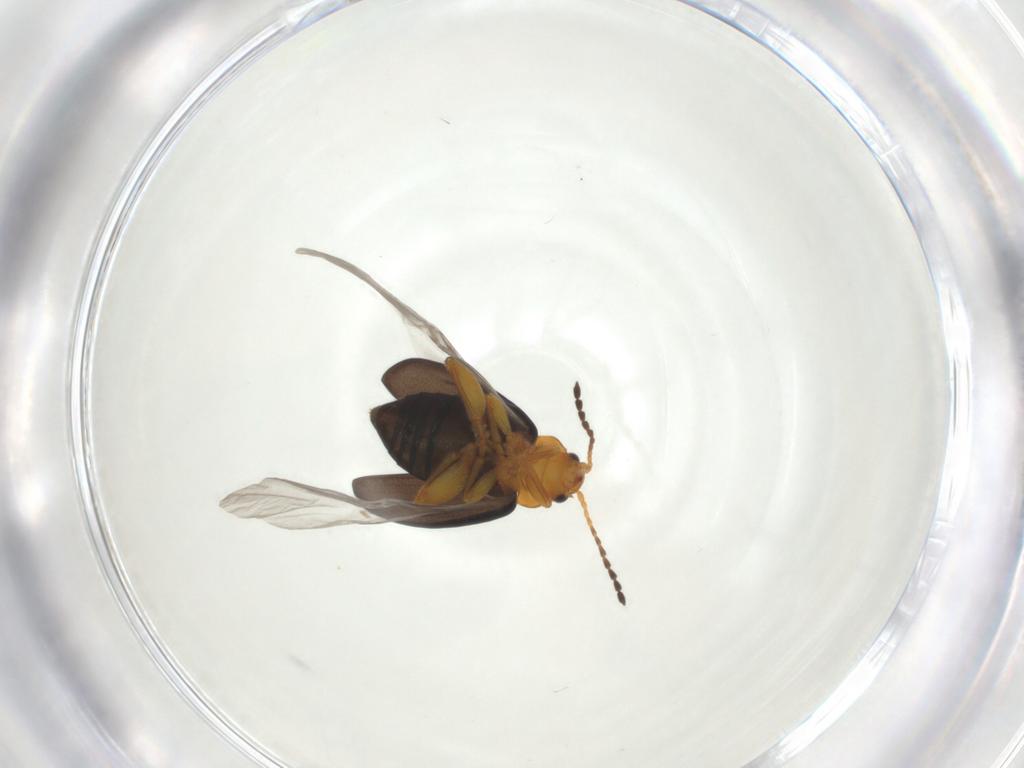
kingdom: Animalia
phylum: Arthropoda
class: Insecta
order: Coleoptera
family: Chrysomelidae
